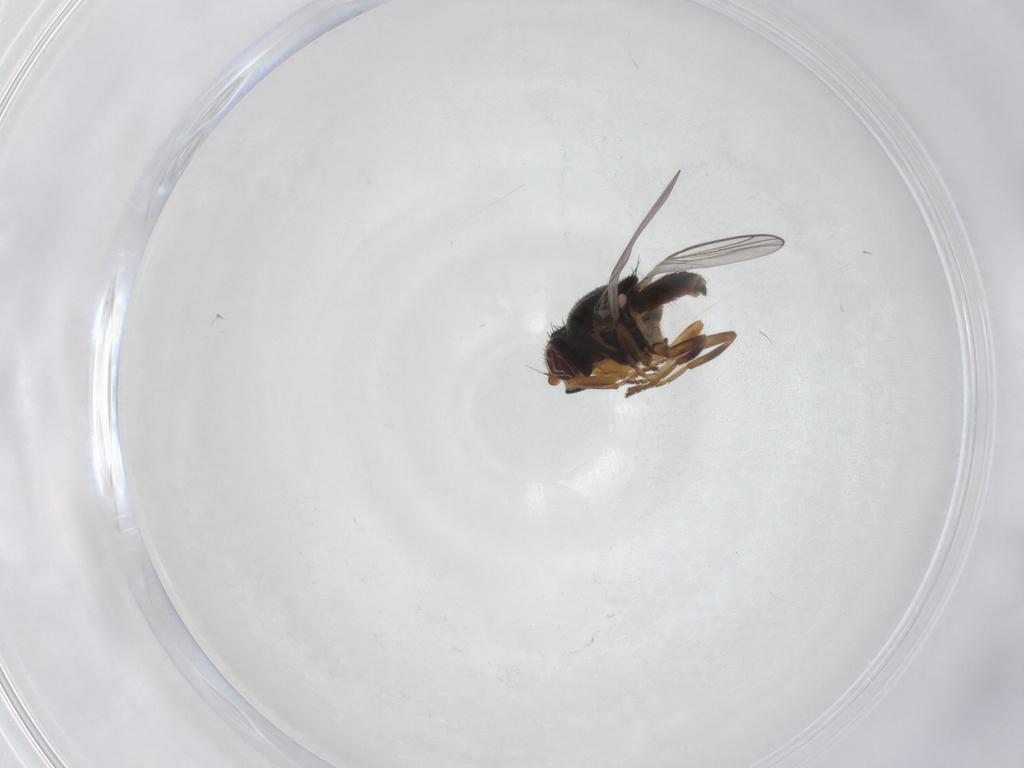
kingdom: Animalia
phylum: Arthropoda
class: Insecta
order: Diptera
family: Chloropidae
